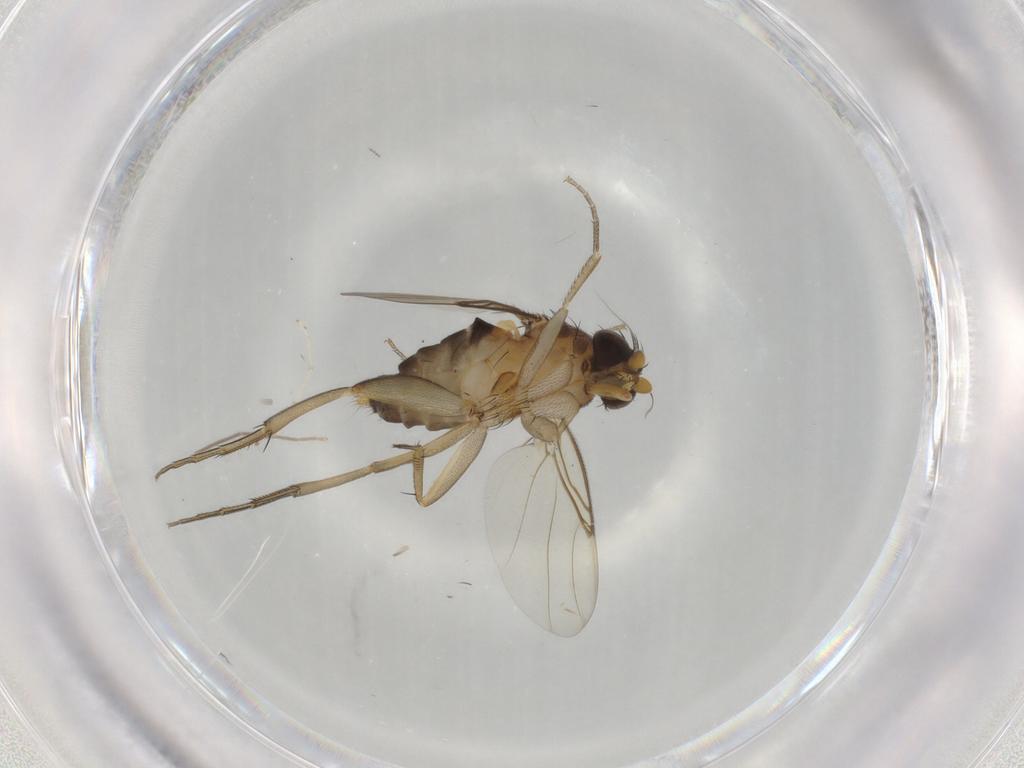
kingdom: Animalia
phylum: Arthropoda
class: Insecta
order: Diptera
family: Phoridae
